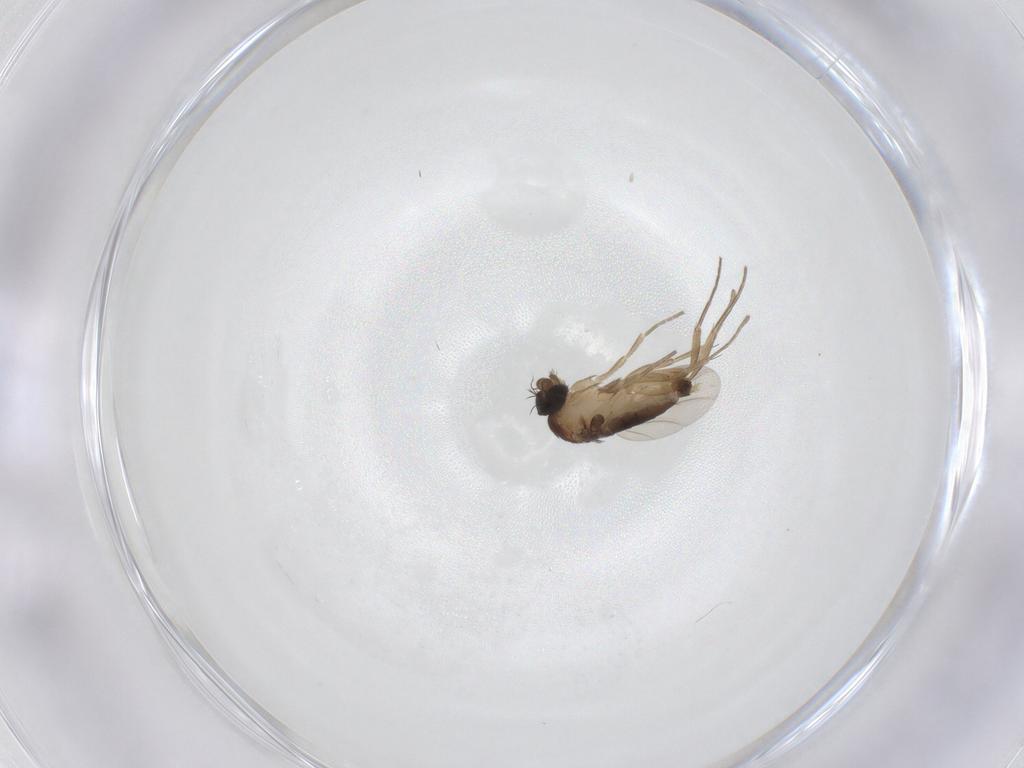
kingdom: Animalia
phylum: Arthropoda
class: Insecta
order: Diptera
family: Phoridae
